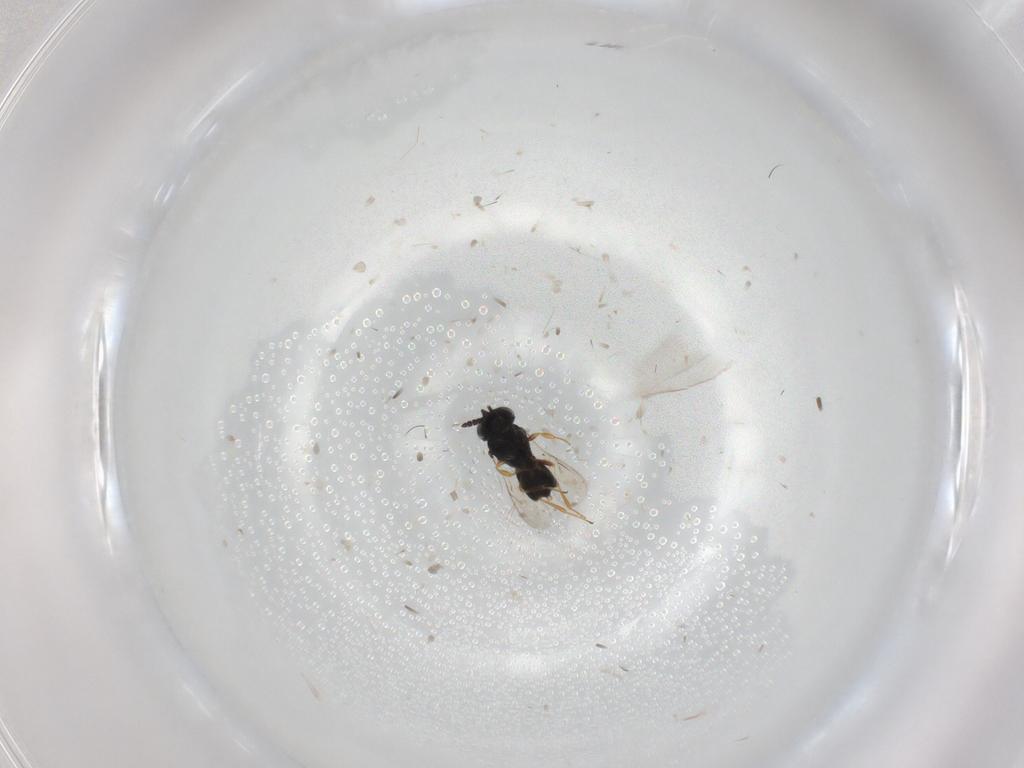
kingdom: Animalia
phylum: Arthropoda
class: Insecta
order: Hymenoptera
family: Scelionidae
